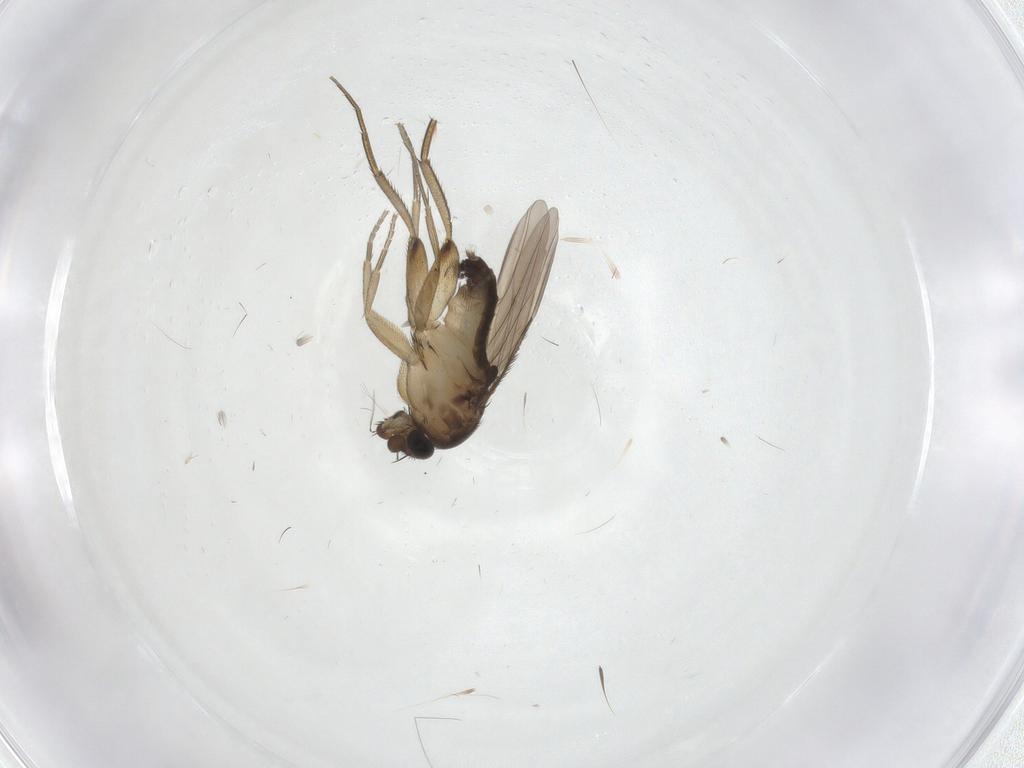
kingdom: Animalia
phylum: Arthropoda
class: Insecta
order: Diptera
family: Phoridae
